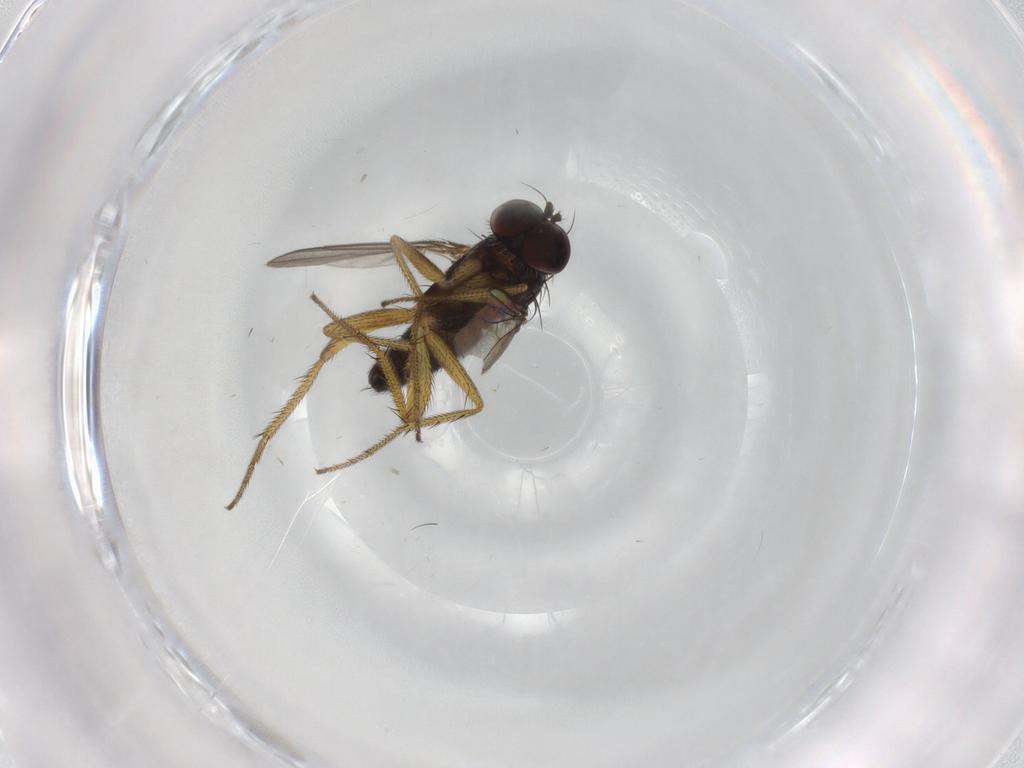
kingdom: Animalia
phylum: Arthropoda
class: Insecta
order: Diptera
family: Dolichopodidae
